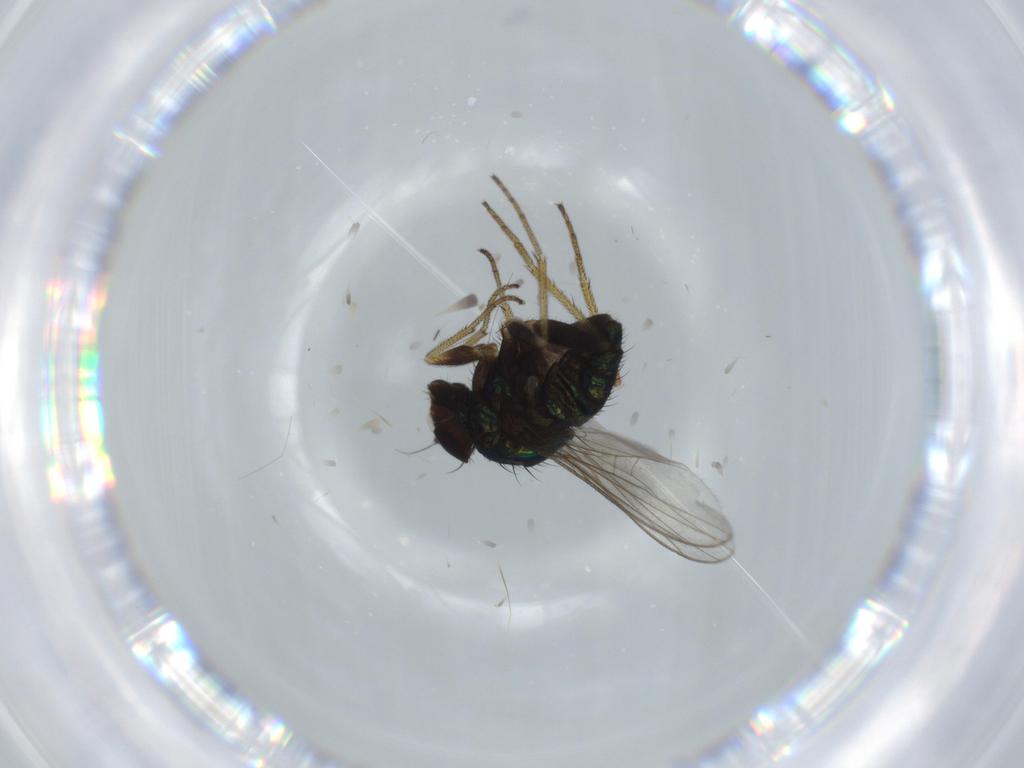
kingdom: Animalia
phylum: Arthropoda
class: Insecta
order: Diptera
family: Dolichopodidae
